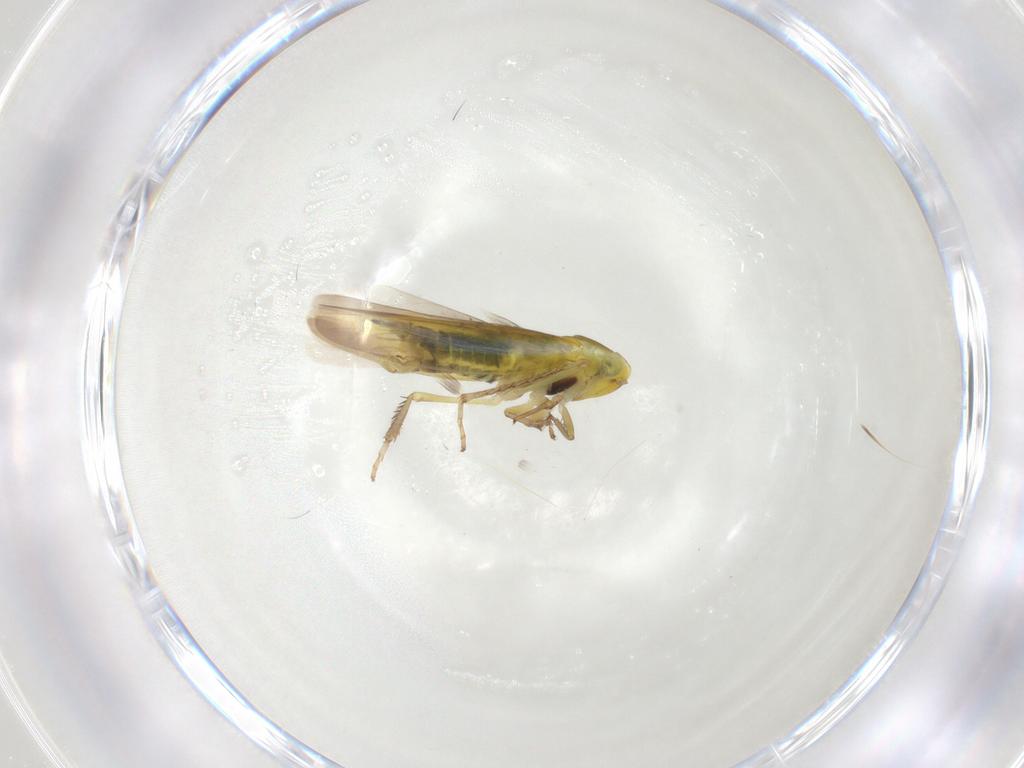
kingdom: Animalia
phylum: Arthropoda
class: Insecta
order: Hemiptera
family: Cicadellidae
